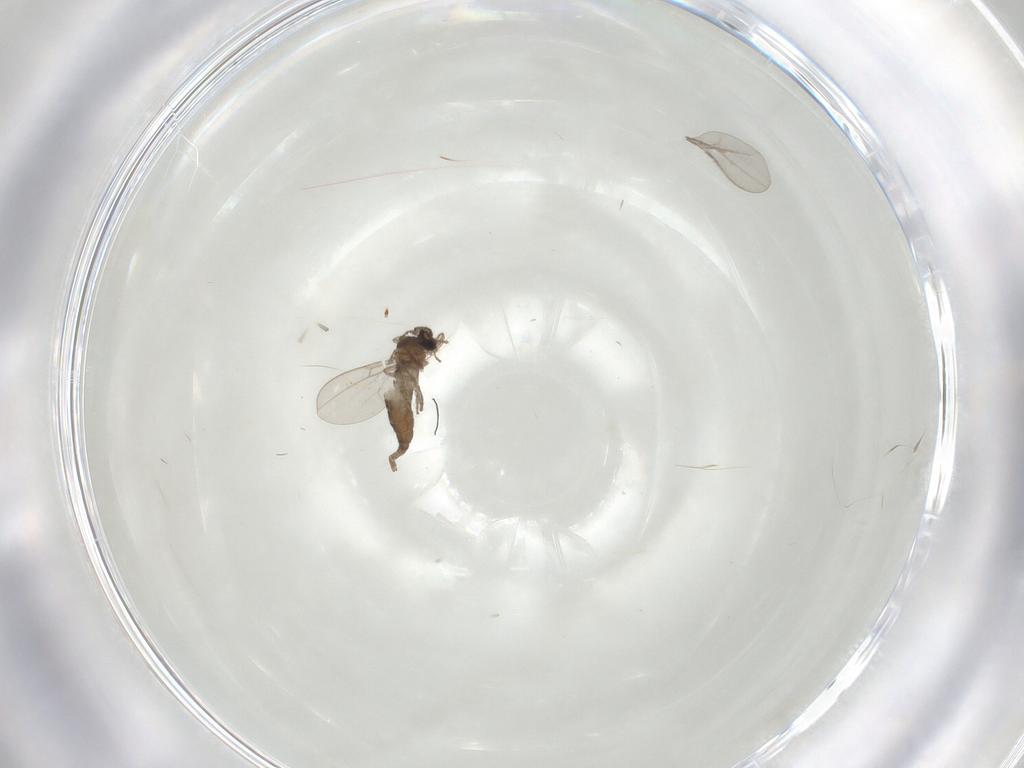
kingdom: Animalia
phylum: Arthropoda
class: Insecta
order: Diptera
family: Cecidomyiidae
